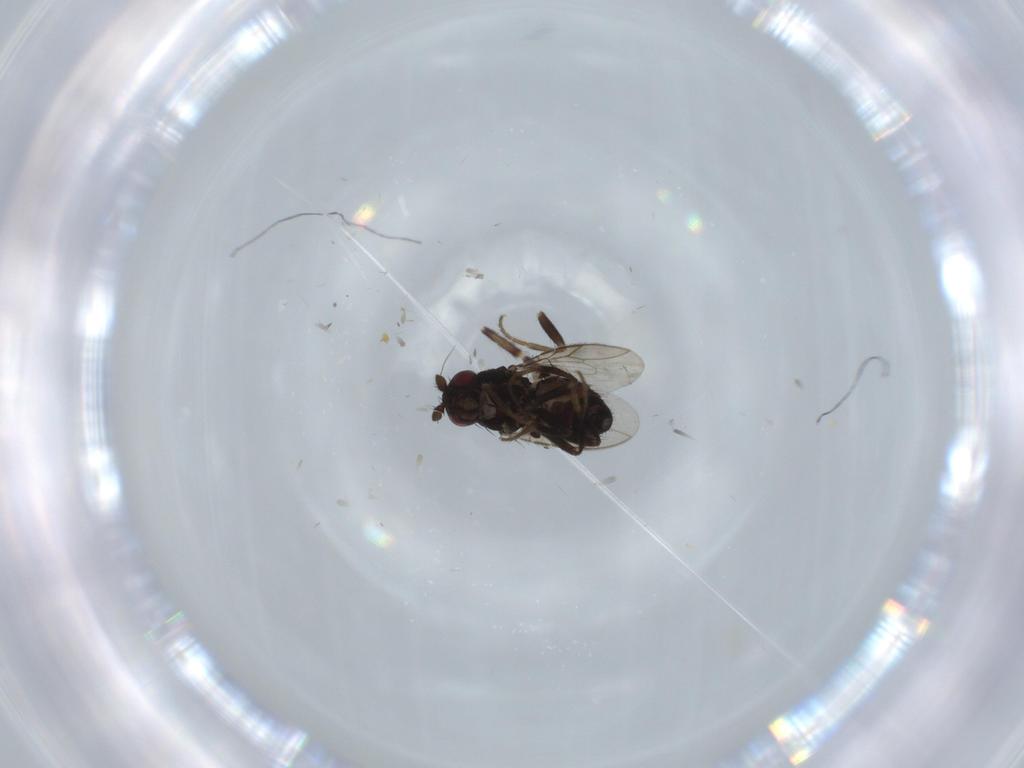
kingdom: Animalia
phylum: Arthropoda
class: Insecta
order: Diptera
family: Sphaeroceridae
